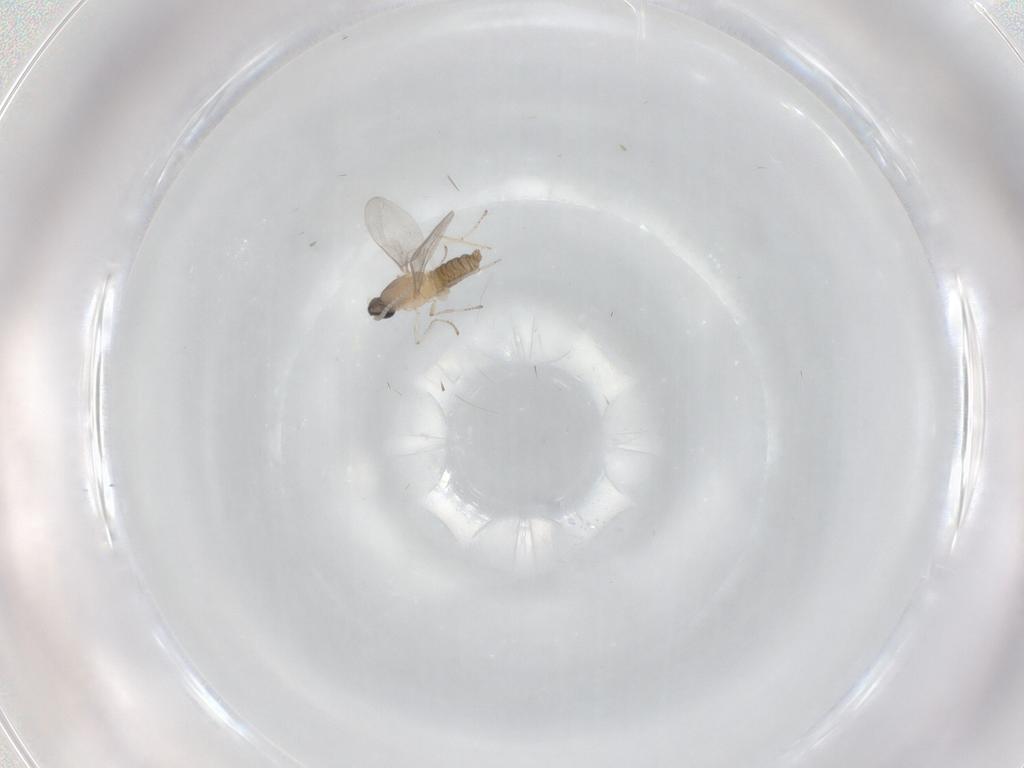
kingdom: Animalia
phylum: Arthropoda
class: Insecta
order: Diptera
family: Cecidomyiidae
